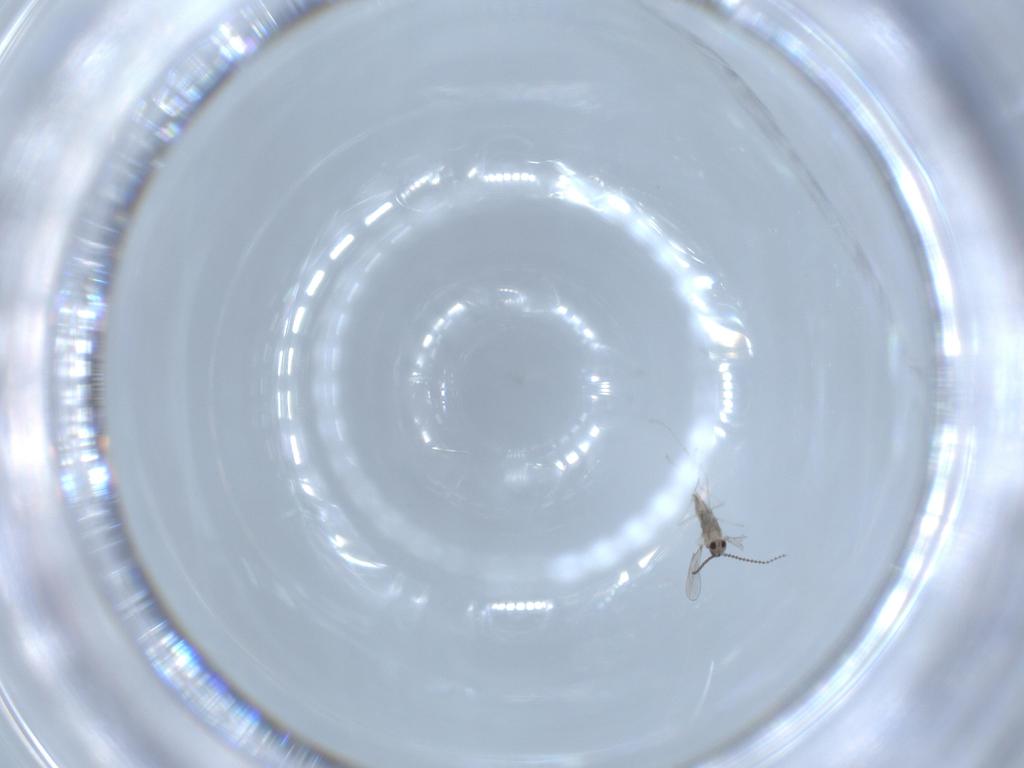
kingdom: Animalia
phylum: Arthropoda
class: Insecta
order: Diptera
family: Cecidomyiidae
